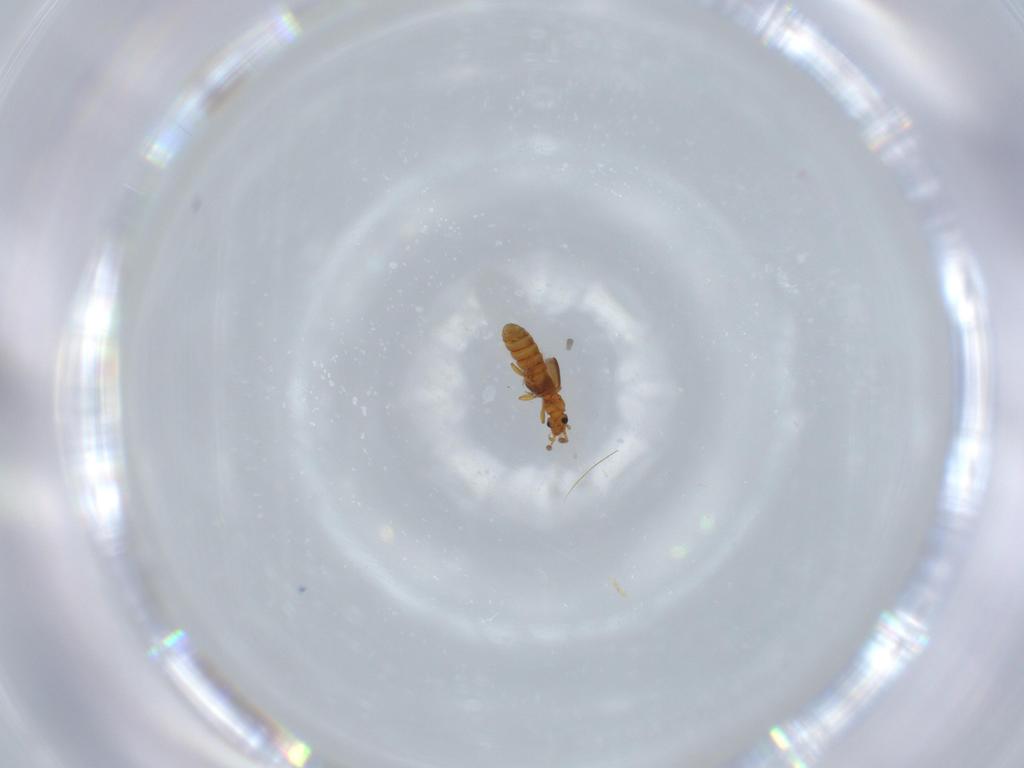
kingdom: Animalia
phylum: Arthropoda
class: Insecta
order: Coleoptera
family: Staphylinidae
